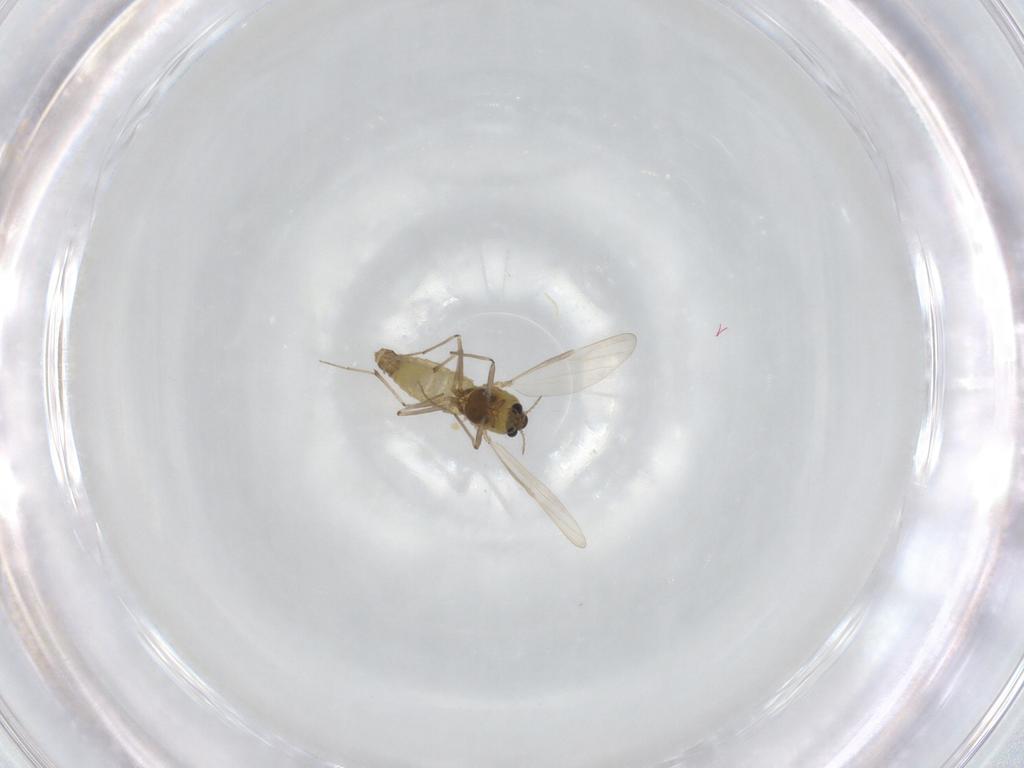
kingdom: Animalia
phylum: Arthropoda
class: Insecta
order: Diptera
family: Chironomidae
